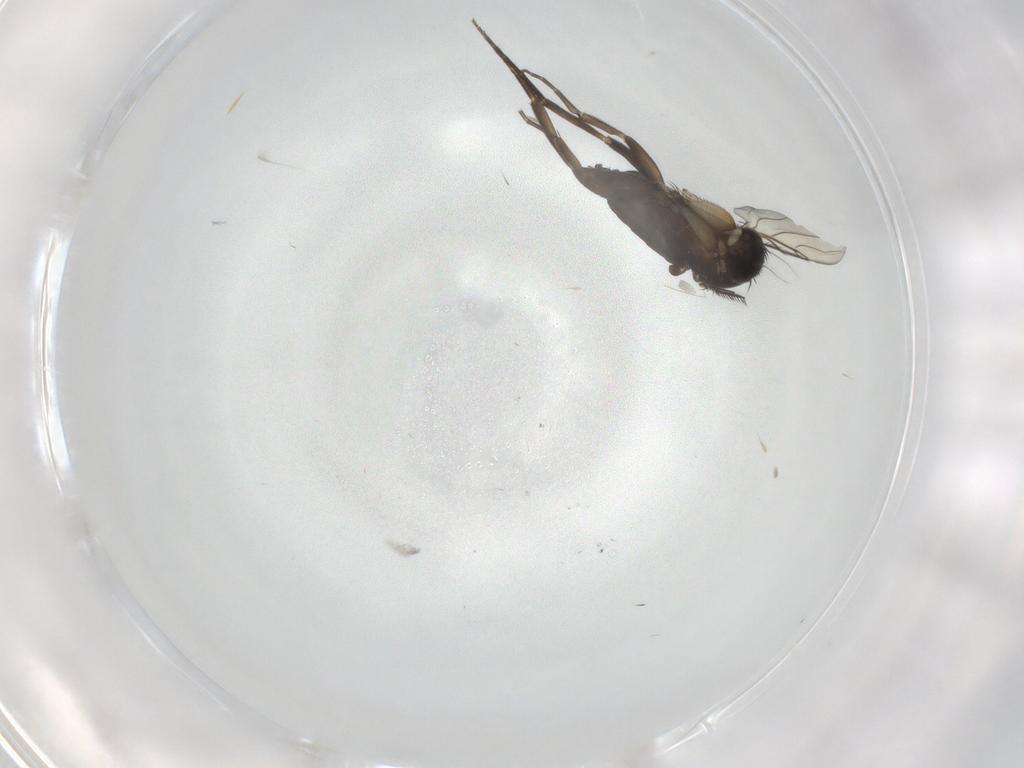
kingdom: Animalia
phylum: Arthropoda
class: Insecta
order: Diptera
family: Phoridae
